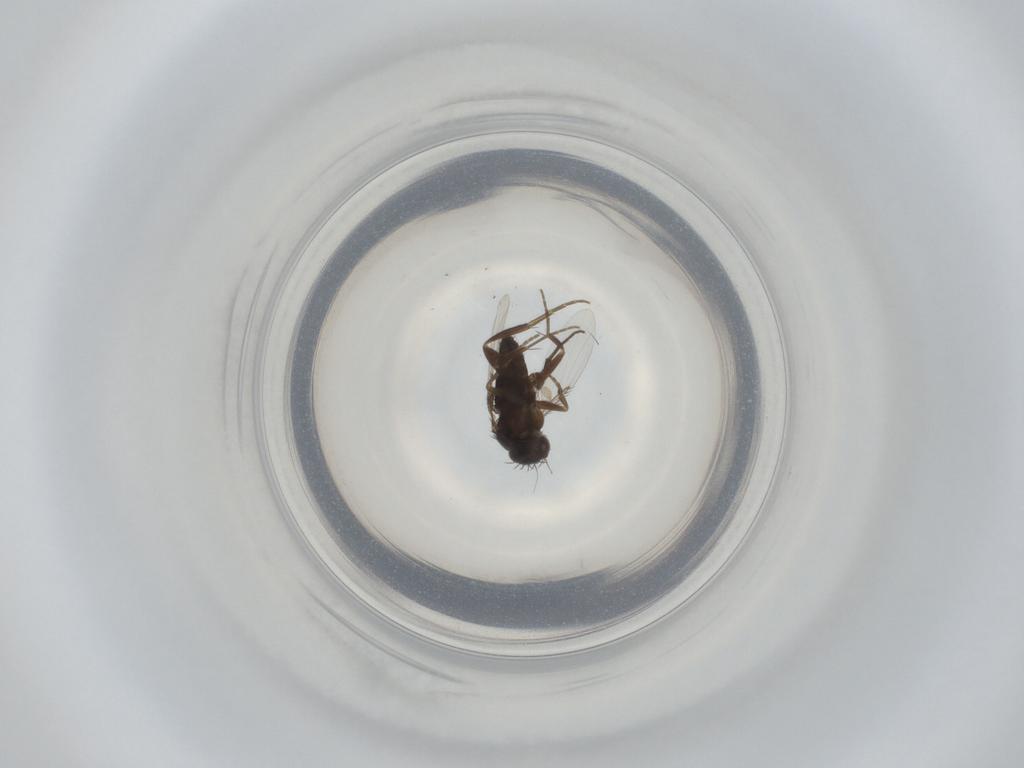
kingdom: Animalia
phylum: Arthropoda
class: Insecta
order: Diptera
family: Phoridae
